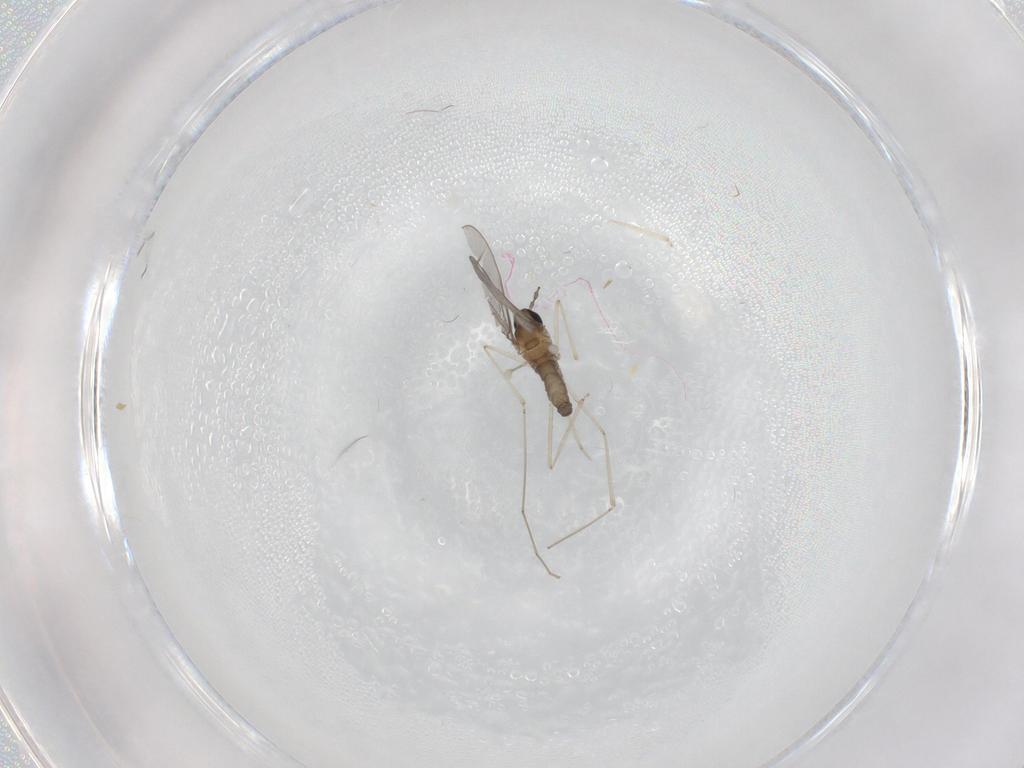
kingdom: Animalia
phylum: Arthropoda
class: Insecta
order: Diptera
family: Cecidomyiidae
